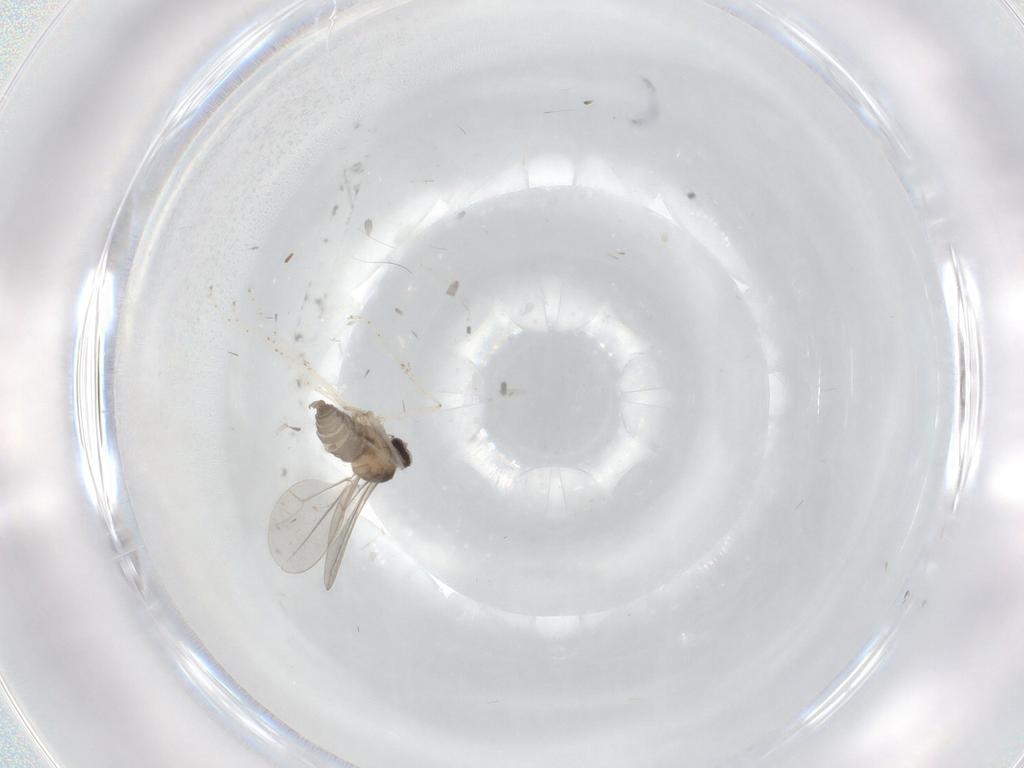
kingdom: Animalia
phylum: Arthropoda
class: Insecta
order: Diptera
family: Cecidomyiidae
